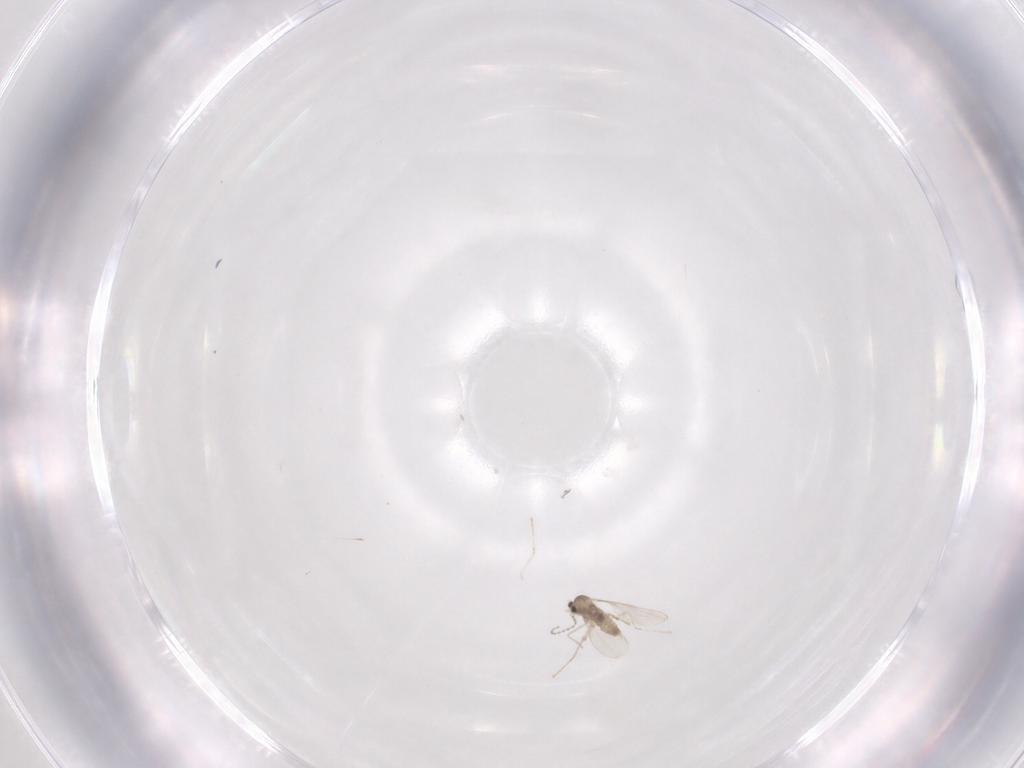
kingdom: Animalia
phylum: Arthropoda
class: Insecta
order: Diptera
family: Cecidomyiidae
